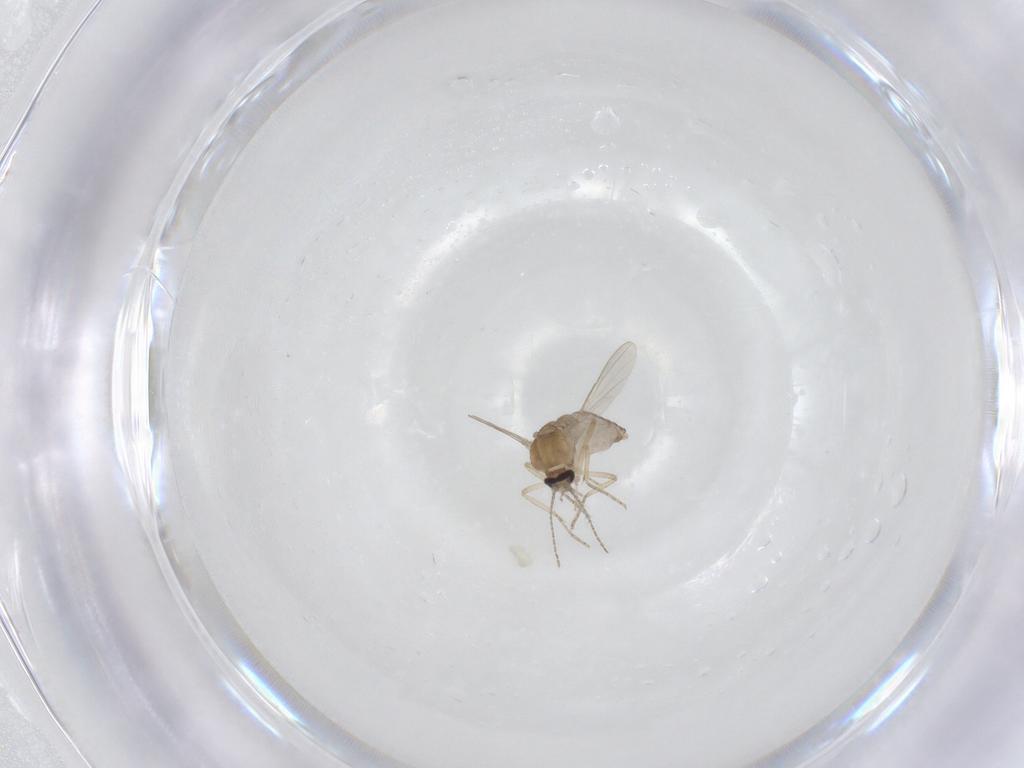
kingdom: Animalia
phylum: Arthropoda
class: Insecta
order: Diptera
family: Ceratopogonidae
